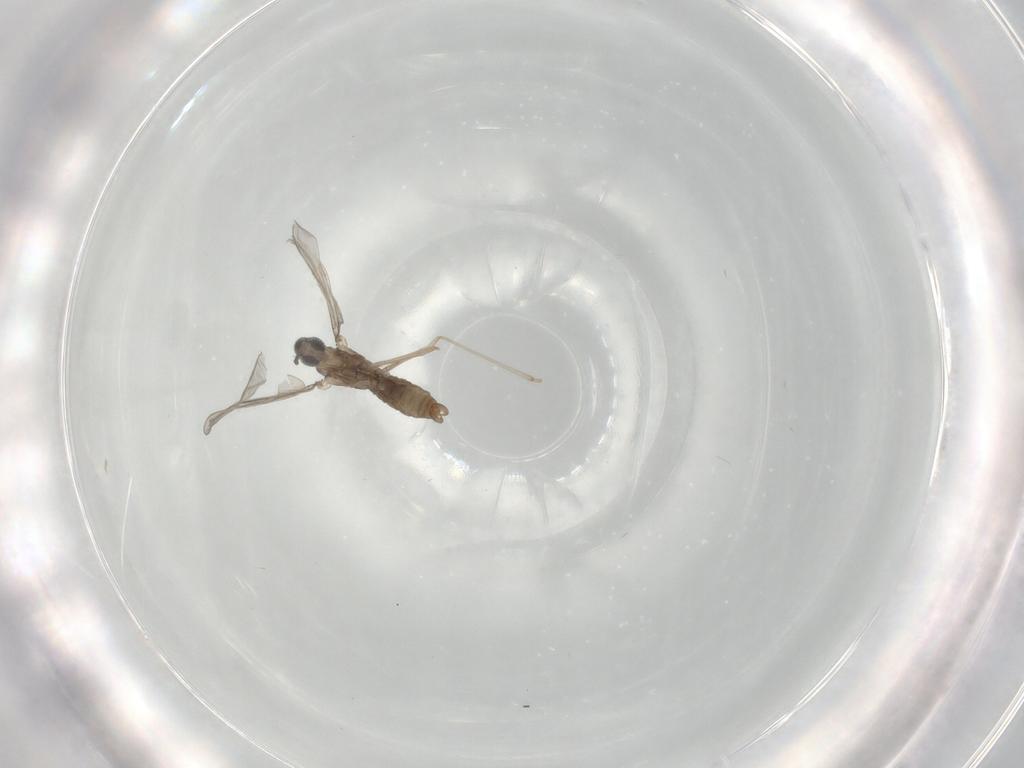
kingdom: Animalia
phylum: Arthropoda
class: Insecta
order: Diptera
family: Cecidomyiidae
